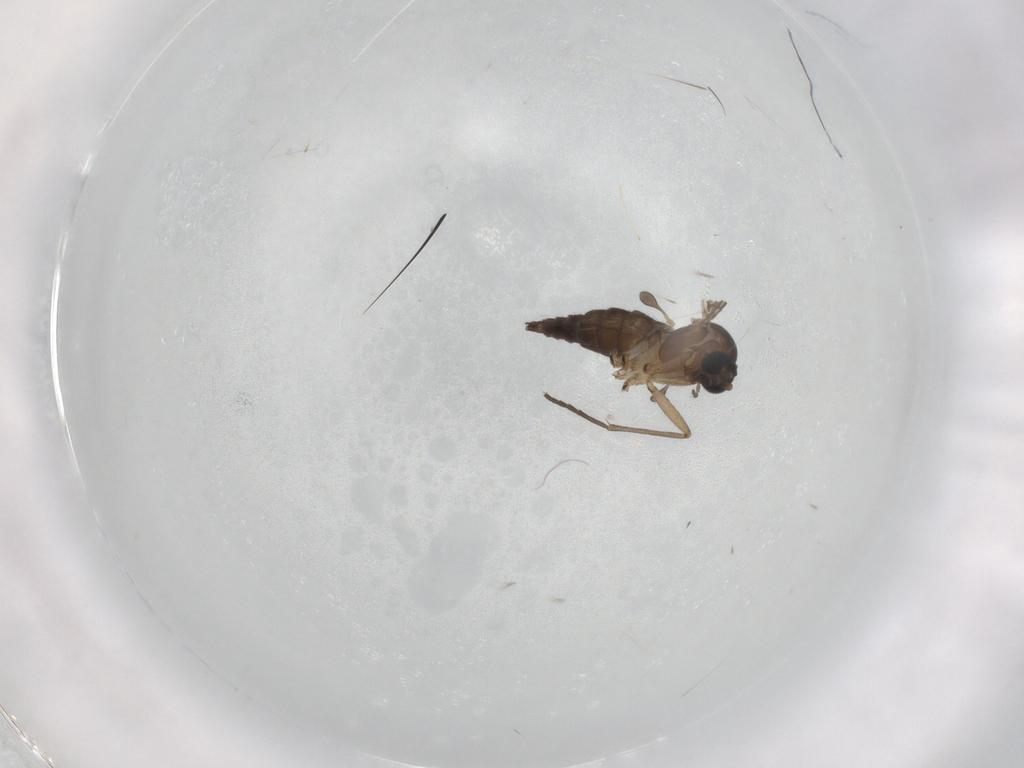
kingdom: Animalia
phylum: Arthropoda
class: Insecta
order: Diptera
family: Sciaridae
